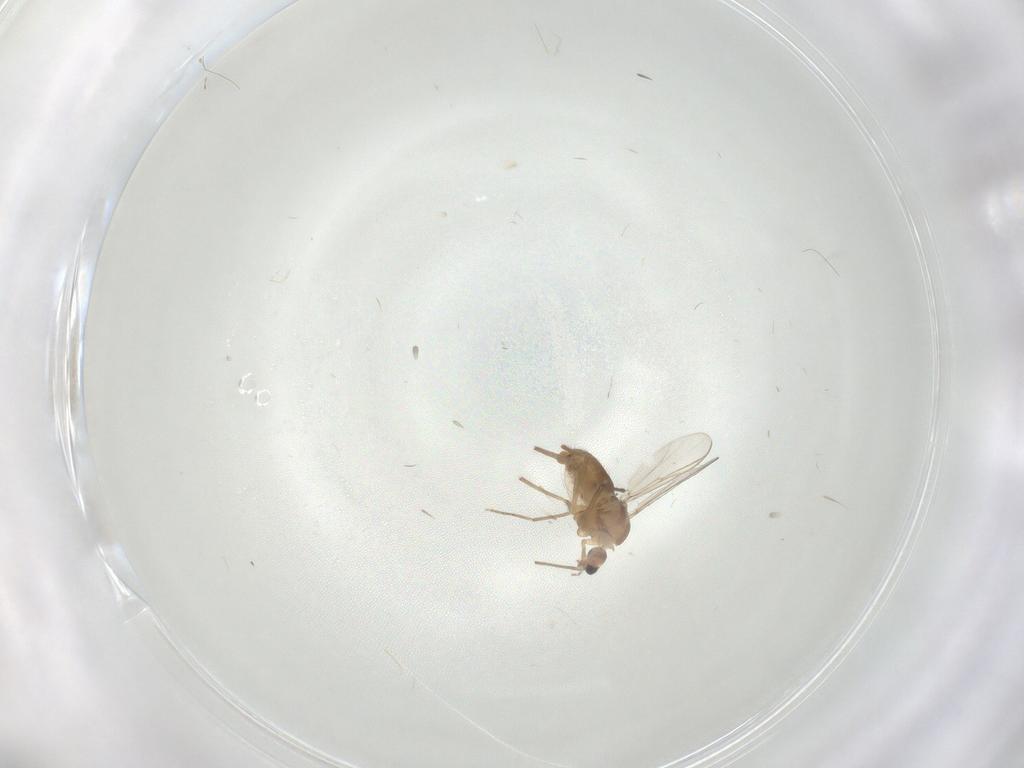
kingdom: Animalia
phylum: Arthropoda
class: Insecta
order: Diptera
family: Chironomidae
